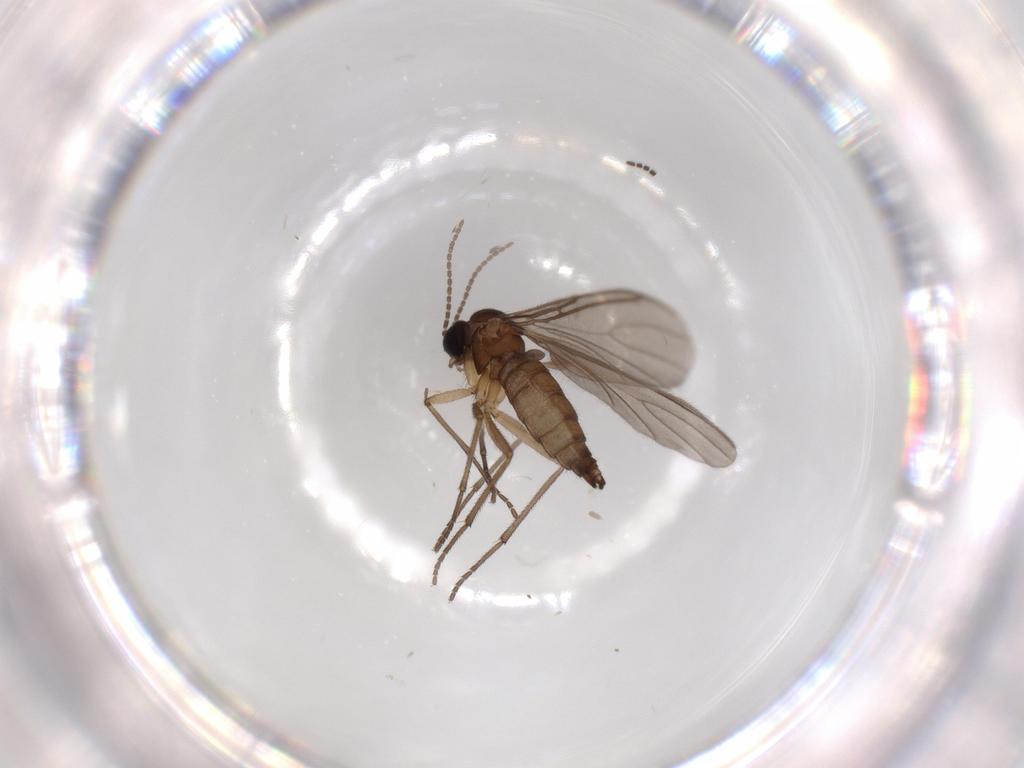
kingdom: Animalia
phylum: Arthropoda
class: Insecta
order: Diptera
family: Sciaridae
